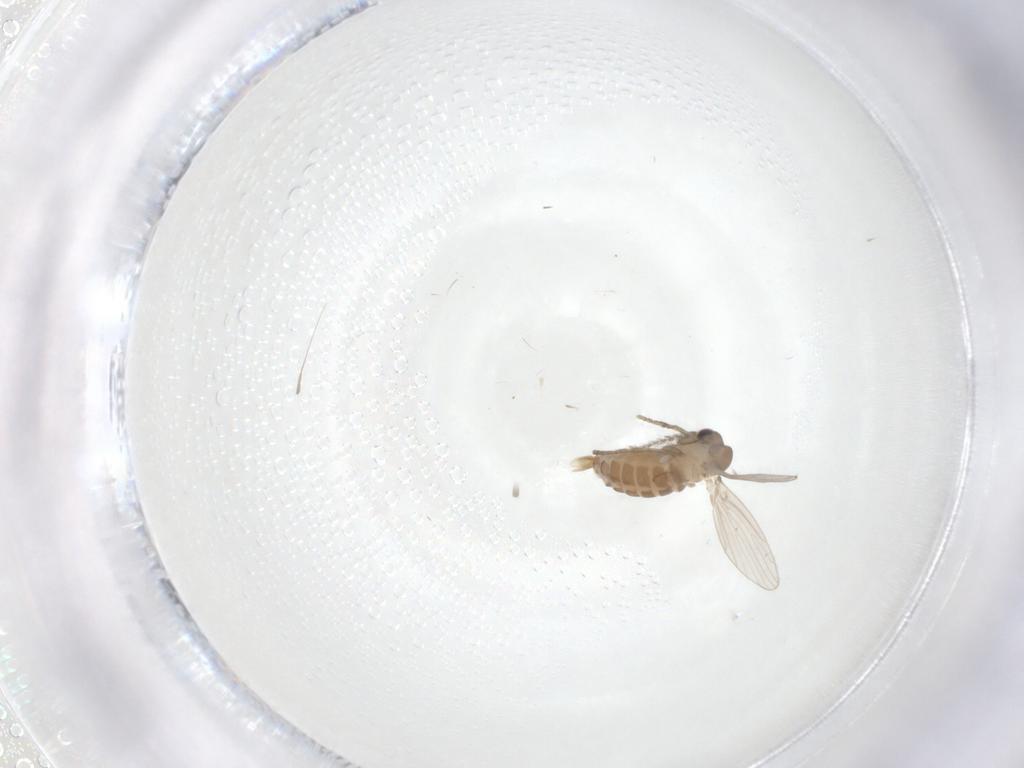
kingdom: Animalia
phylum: Arthropoda
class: Insecta
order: Diptera
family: Psychodidae
